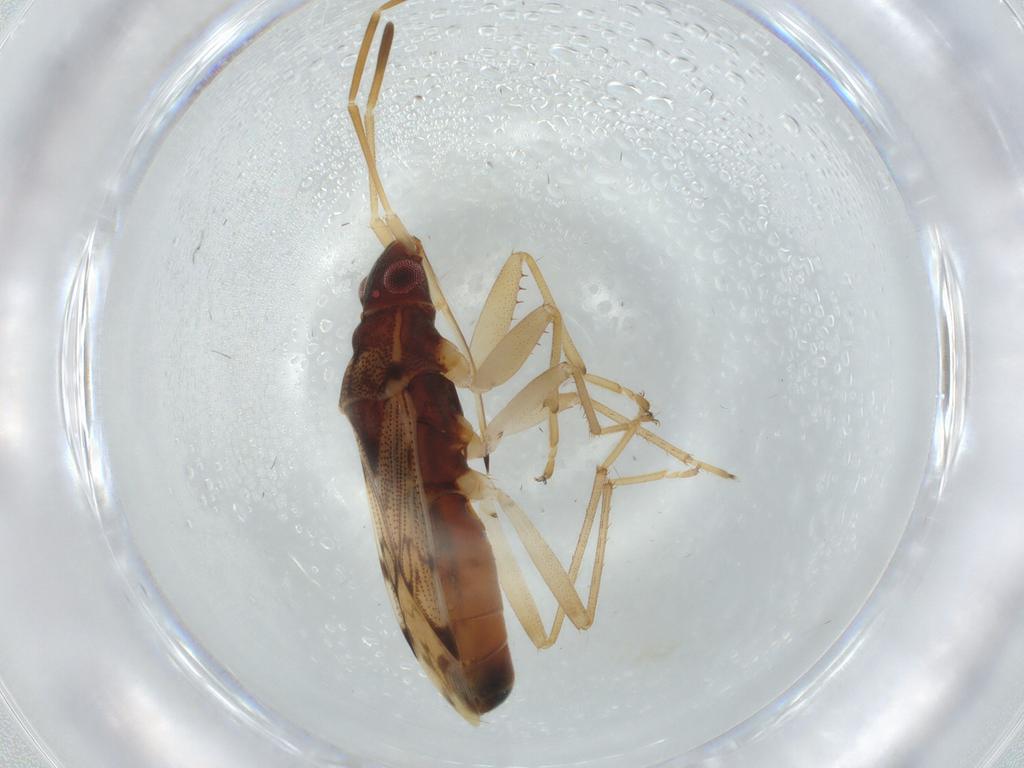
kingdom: Animalia
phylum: Arthropoda
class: Insecta
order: Hemiptera
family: Rhyparochromidae
